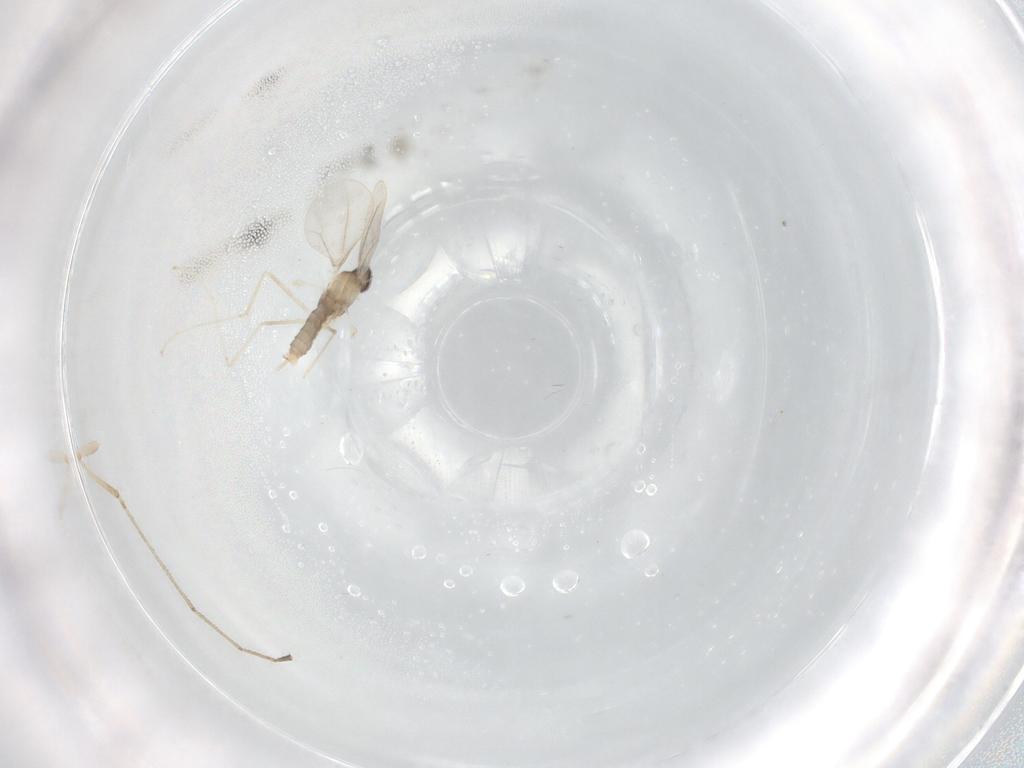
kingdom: Animalia
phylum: Arthropoda
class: Insecta
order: Diptera
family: Cecidomyiidae
